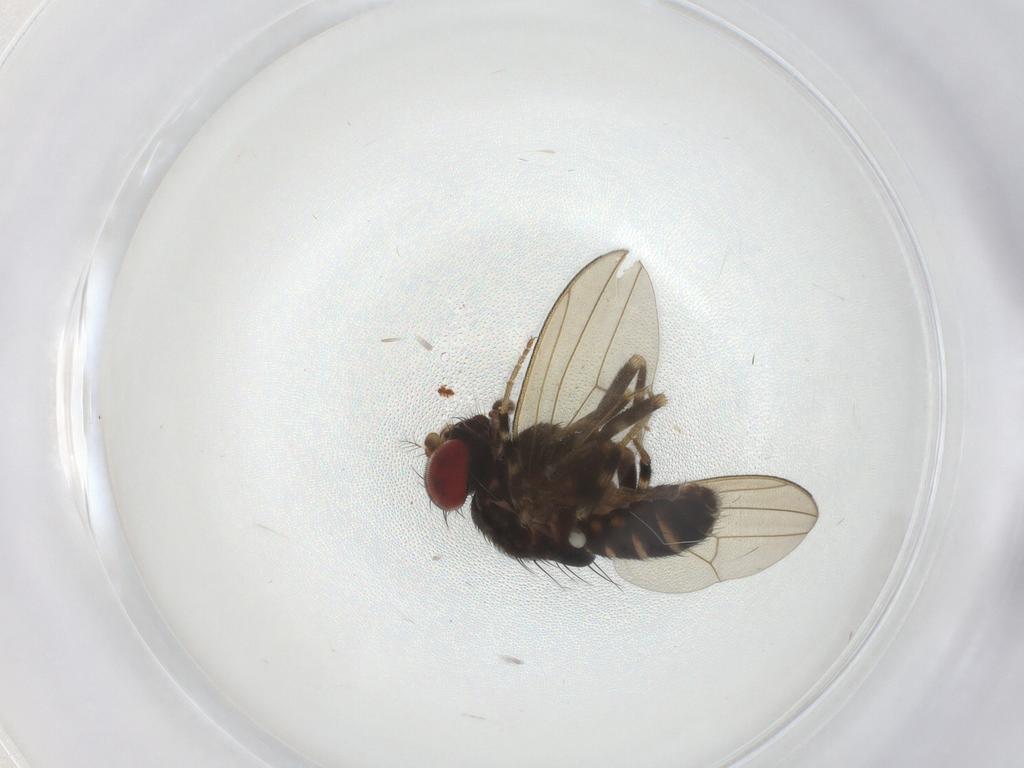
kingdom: Animalia
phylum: Arthropoda
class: Insecta
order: Diptera
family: Drosophilidae
